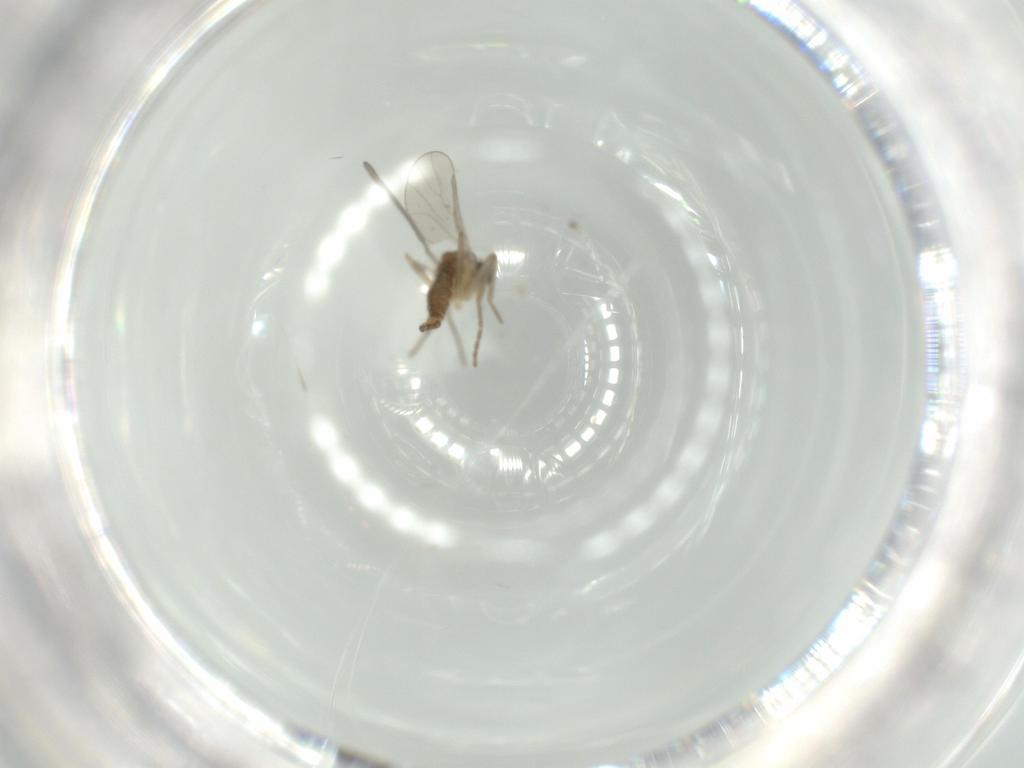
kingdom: Animalia
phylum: Arthropoda
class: Insecta
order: Diptera
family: Cecidomyiidae
